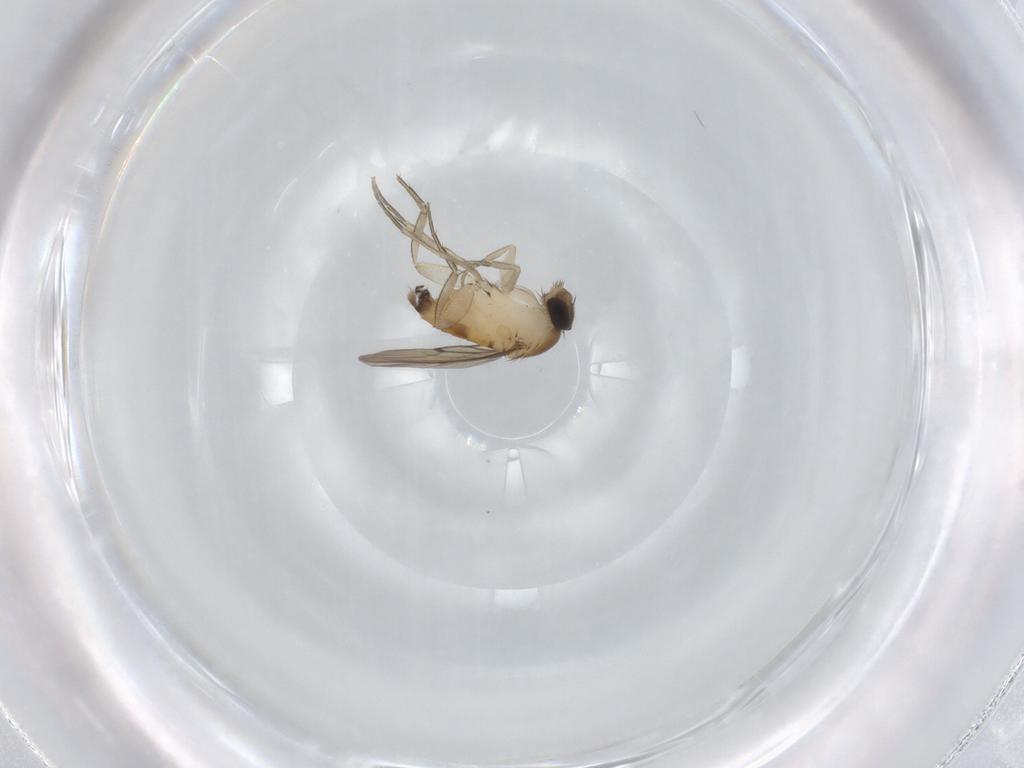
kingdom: Animalia
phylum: Arthropoda
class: Insecta
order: Diptera
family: Phoridae
